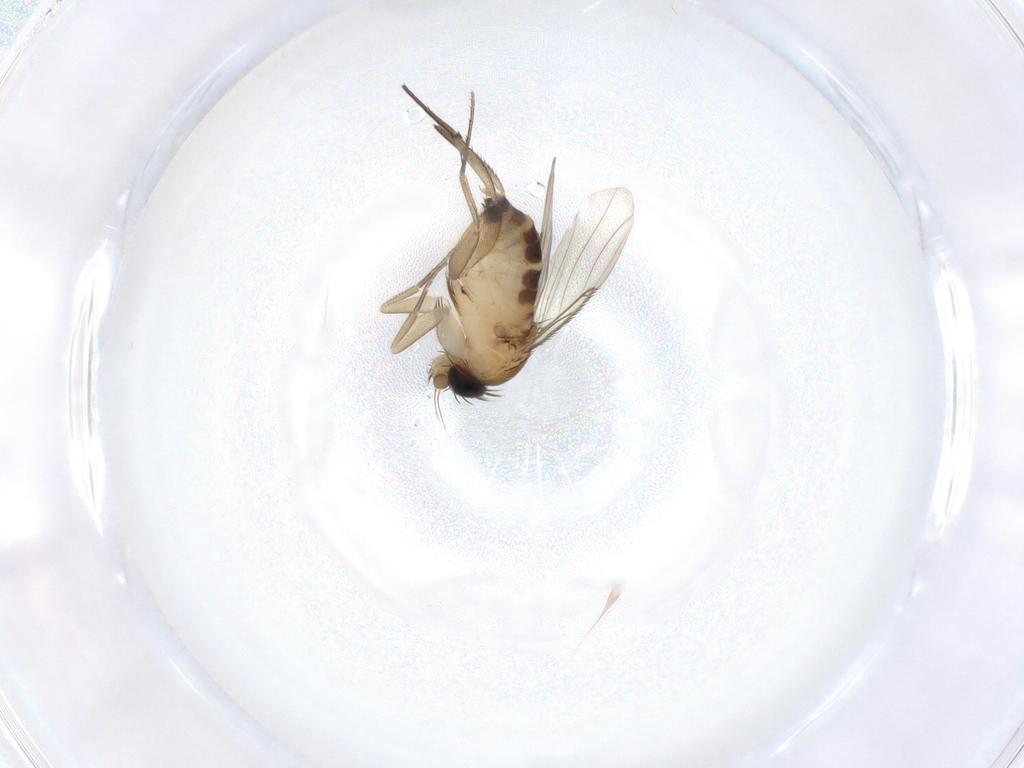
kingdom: Animalia
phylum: Arthropoda
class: Insecta
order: Diptera
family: Phoridae
